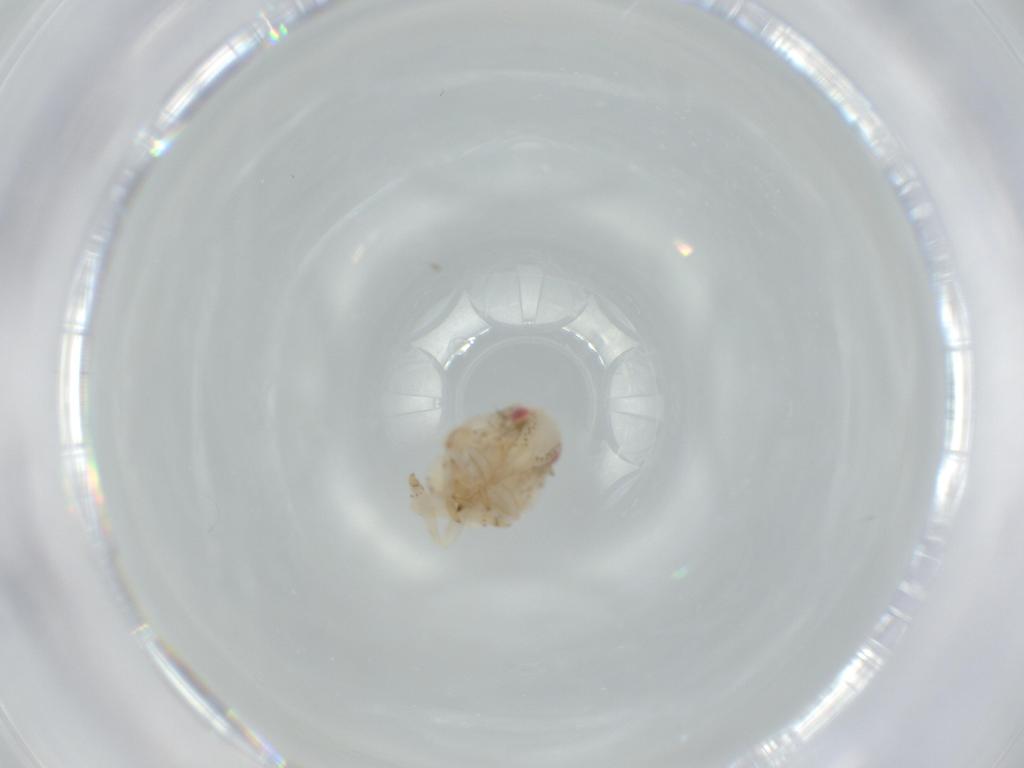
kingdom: Animalia
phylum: Arthropoda
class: Insecta
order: Hemiptera
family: Acanaloniidae
